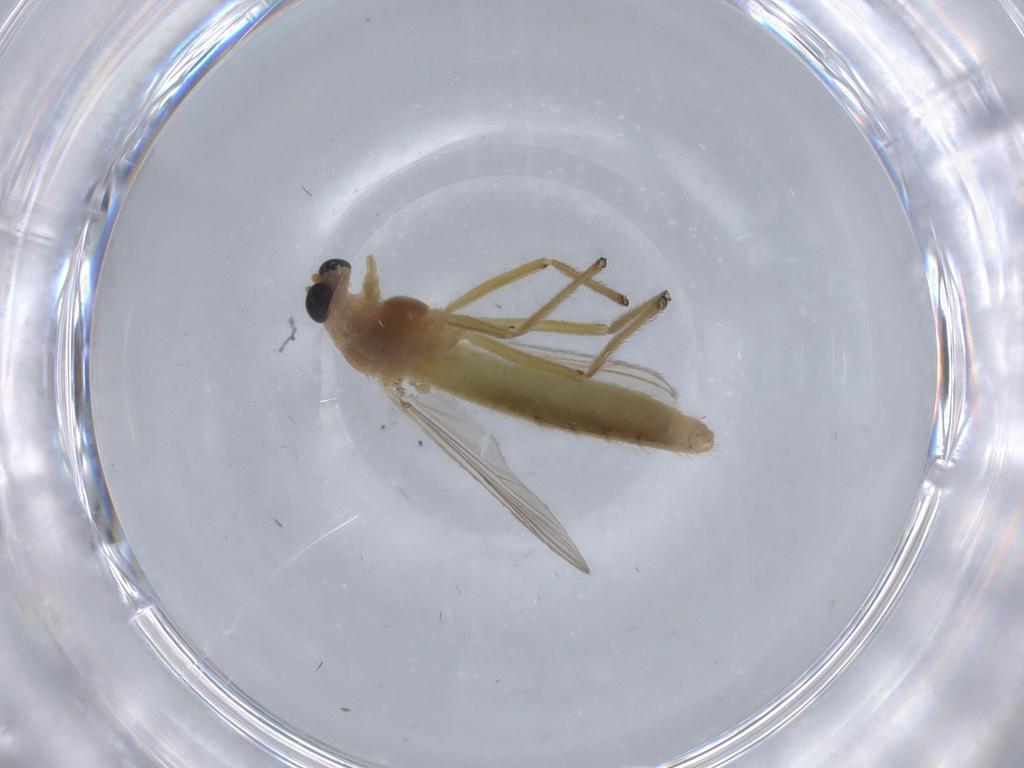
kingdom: Animalia
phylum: Arthropoda
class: Insecta
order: Diptera
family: Chironomidae
